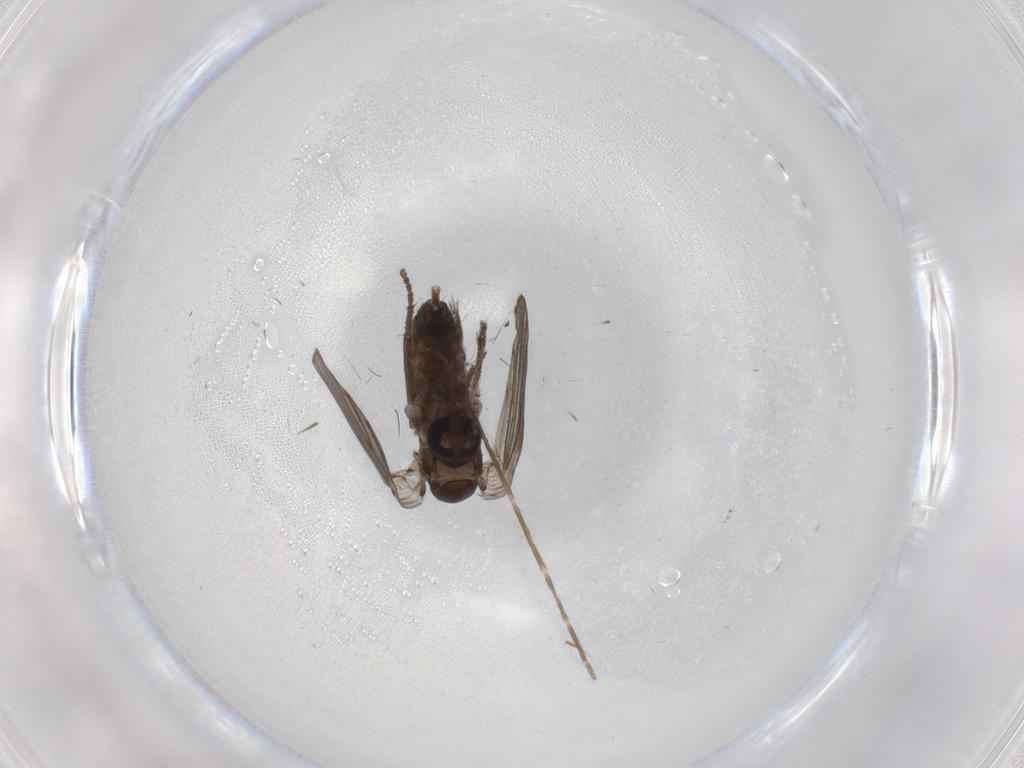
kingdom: Animalia
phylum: Arthropoda
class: Insecta
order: Diptera
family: Psychodidae
